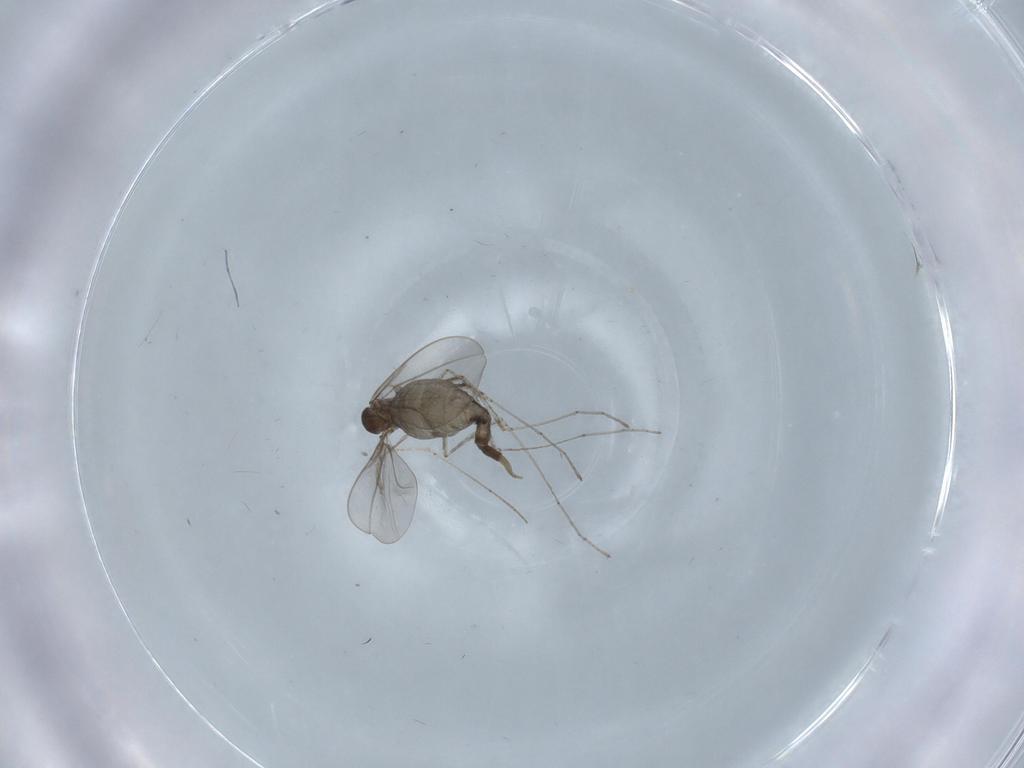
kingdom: Animalia
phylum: Arthropoda
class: Insecta
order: Diptera
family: Cecidomyiidae
